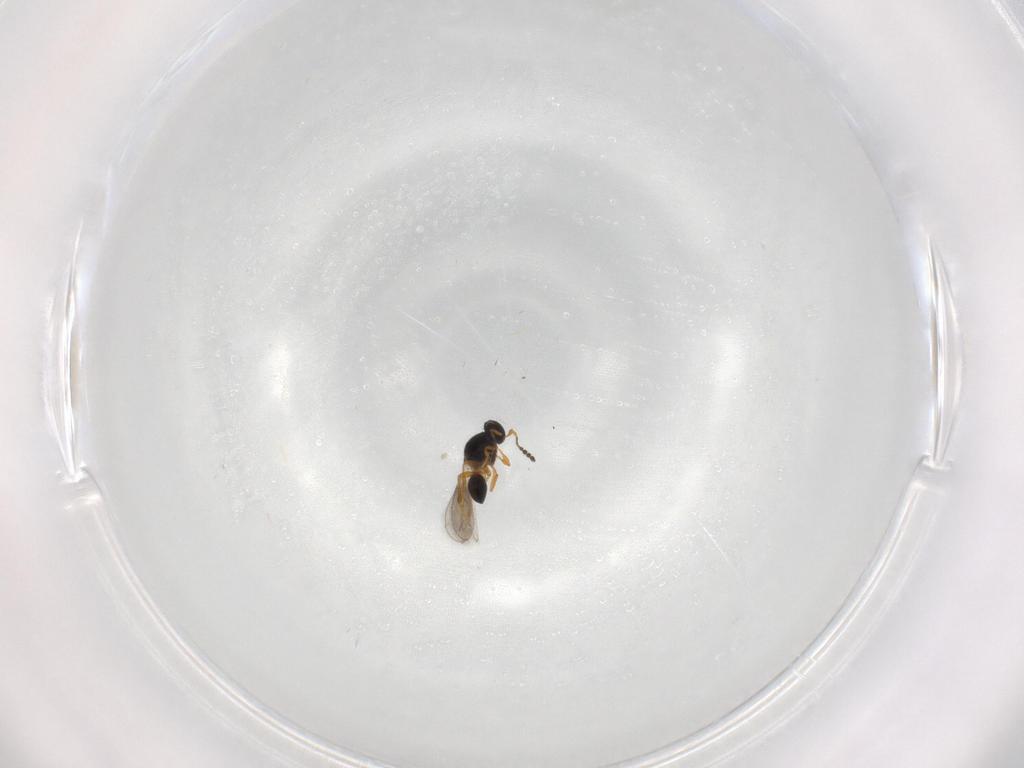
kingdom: Animalia
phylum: Arthropoda
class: Insecta
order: Hymenoptera
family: Platygastridae
